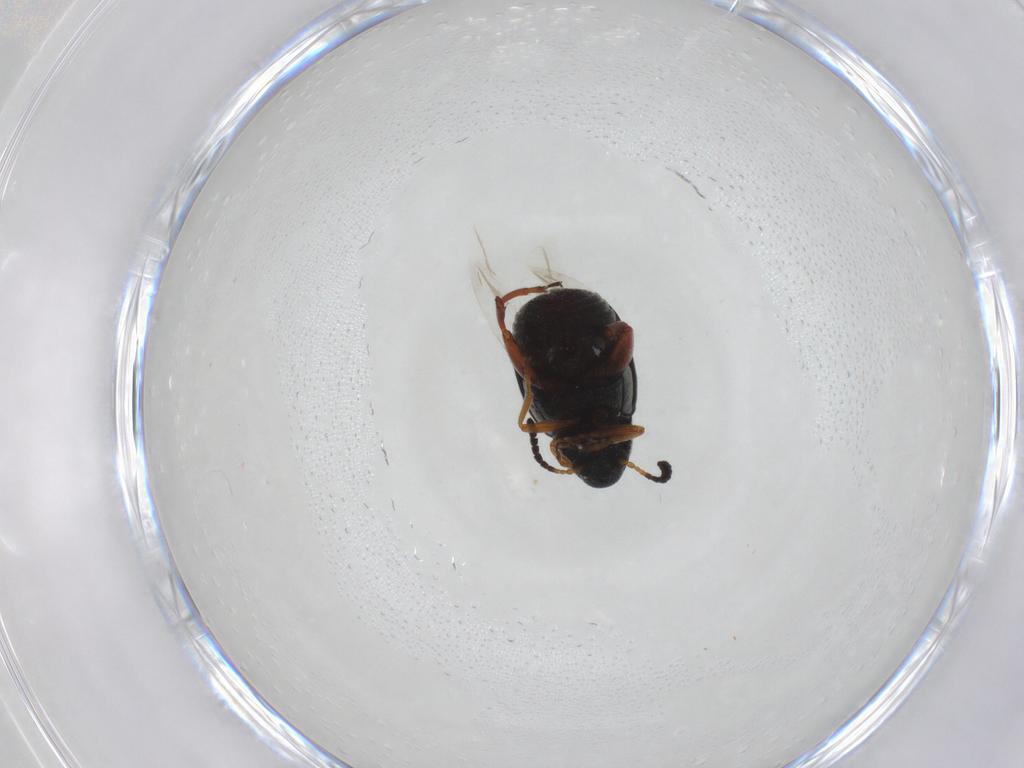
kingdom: Animalia
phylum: Arthropoda
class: Insecta
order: Coleoptera
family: Chrysomelidae
